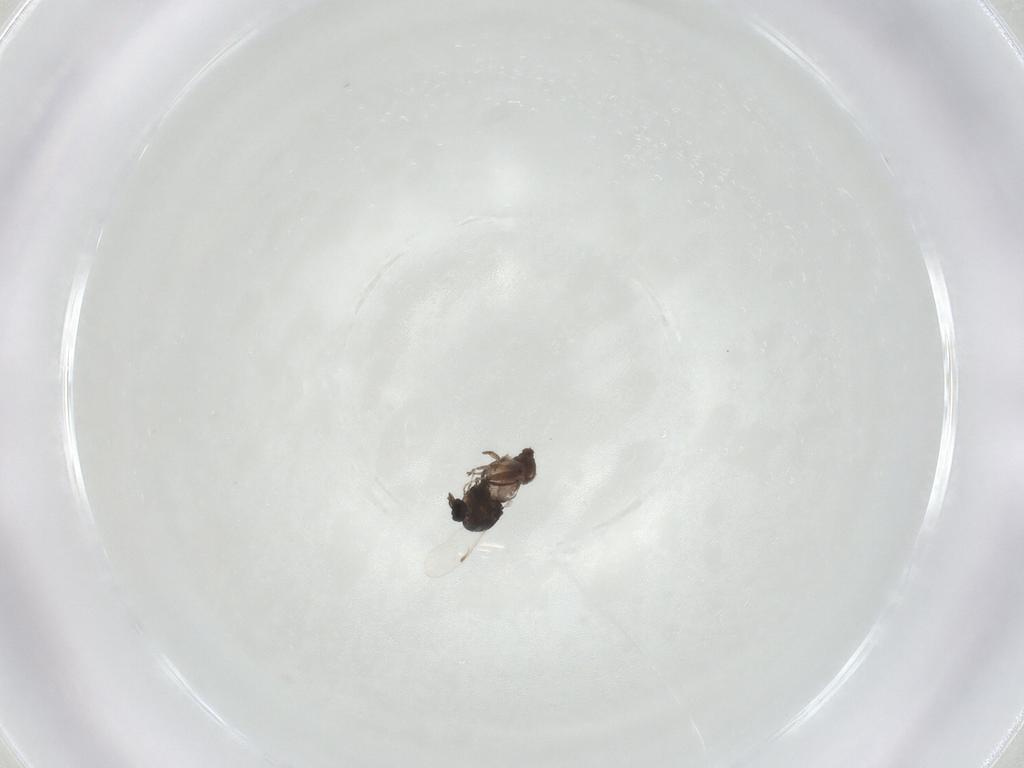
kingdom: Animalia
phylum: Arthropoda
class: Insecta
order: Diptera
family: Chironomidae
